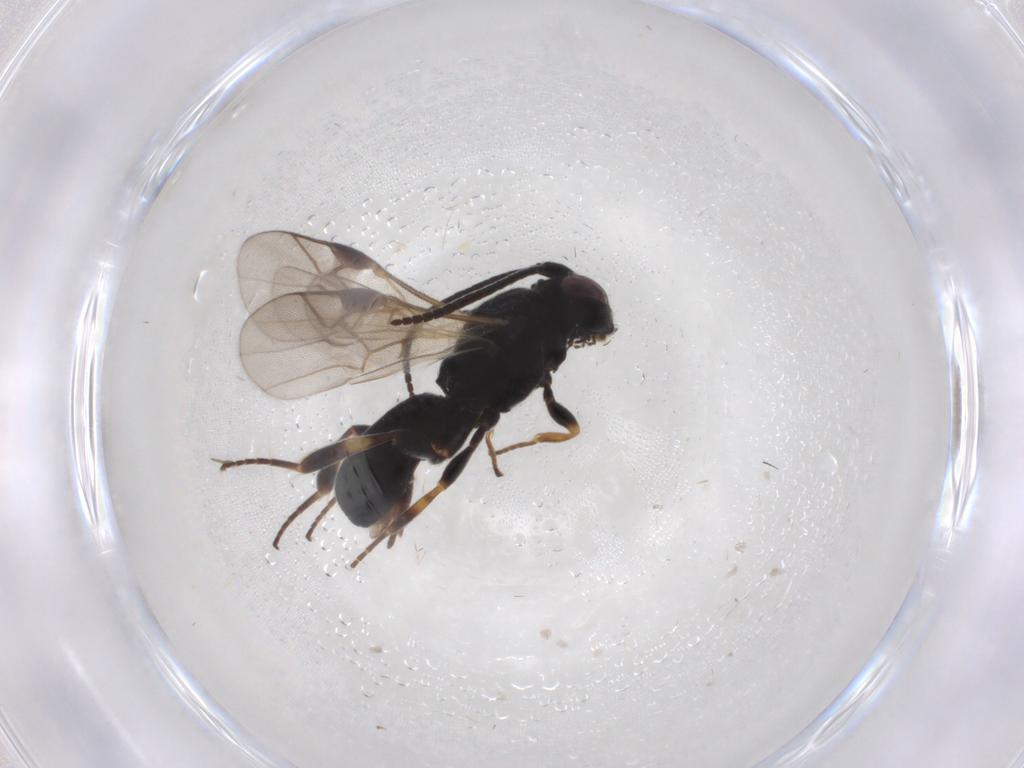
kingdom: Animalia
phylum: Arthropoda
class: Insecta
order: Hymenoptera
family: Braconidae
